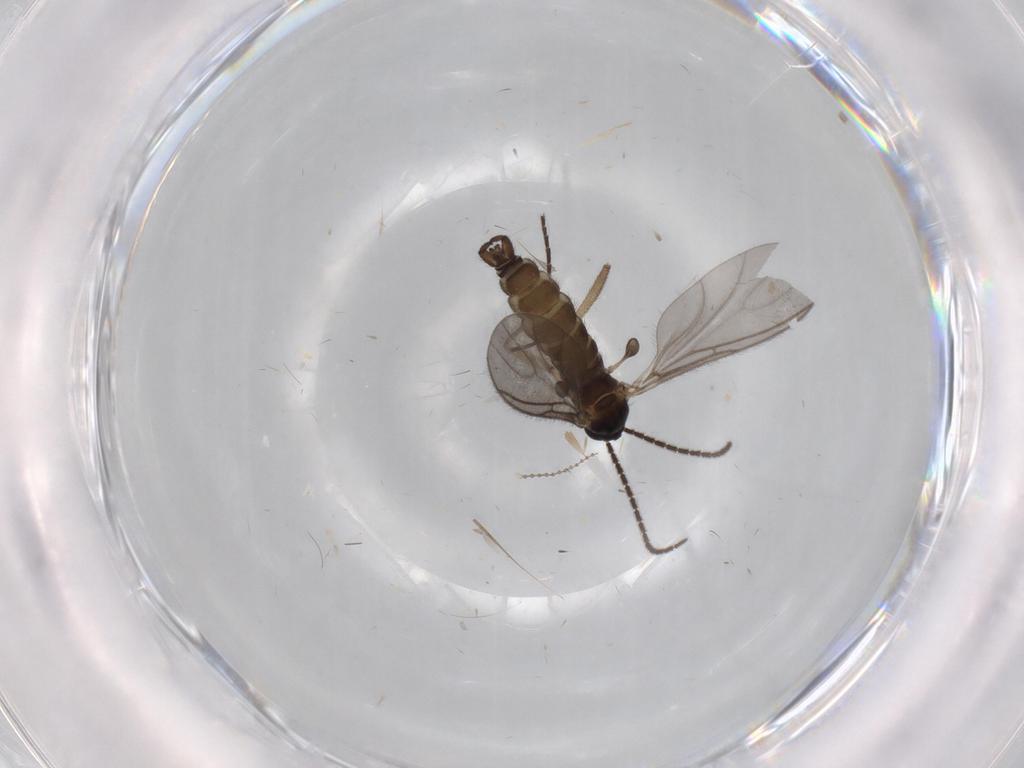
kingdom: Animalia
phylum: Arthropoda
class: Insecta
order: Diptera
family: Sciaridae
